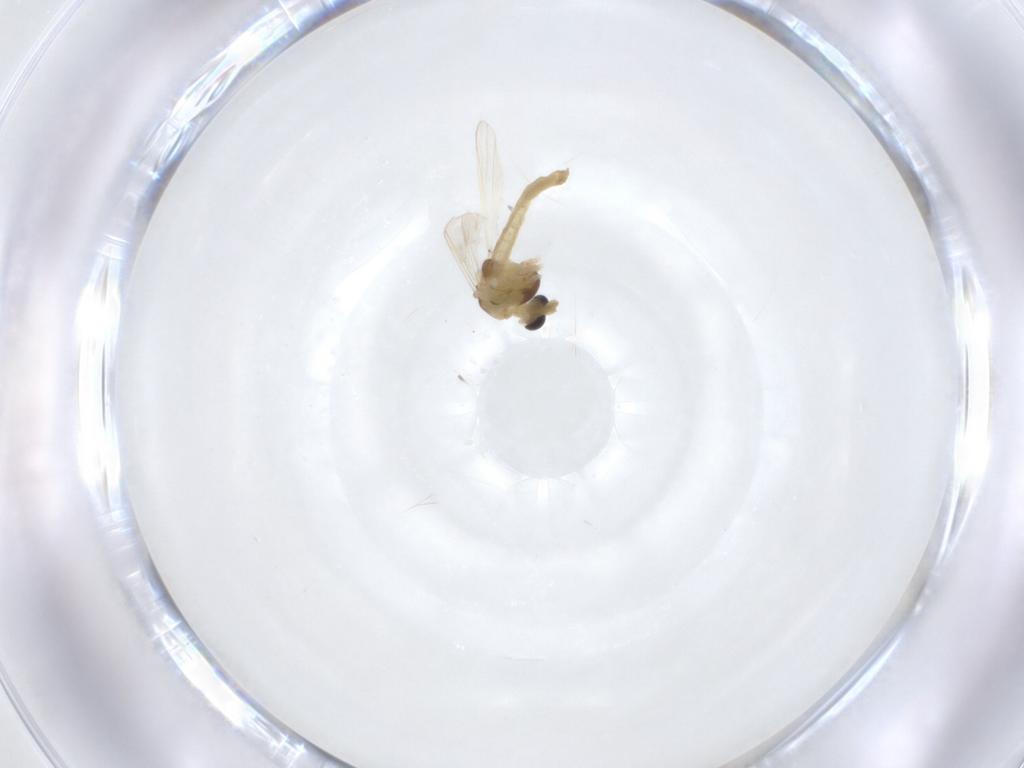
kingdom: Animalia
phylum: Arthropoda
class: Insecta
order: Diptera
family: Chironomidae
